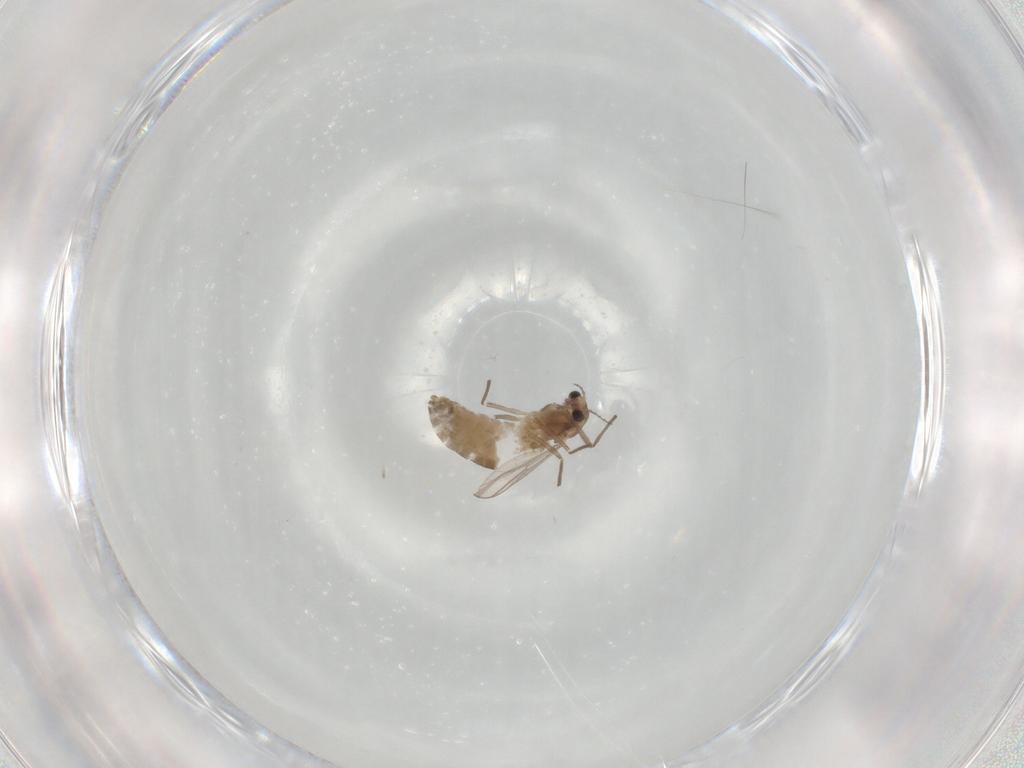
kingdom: Animalia
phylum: Arthropoda
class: Insecta
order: Diptera
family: Chironomidae
